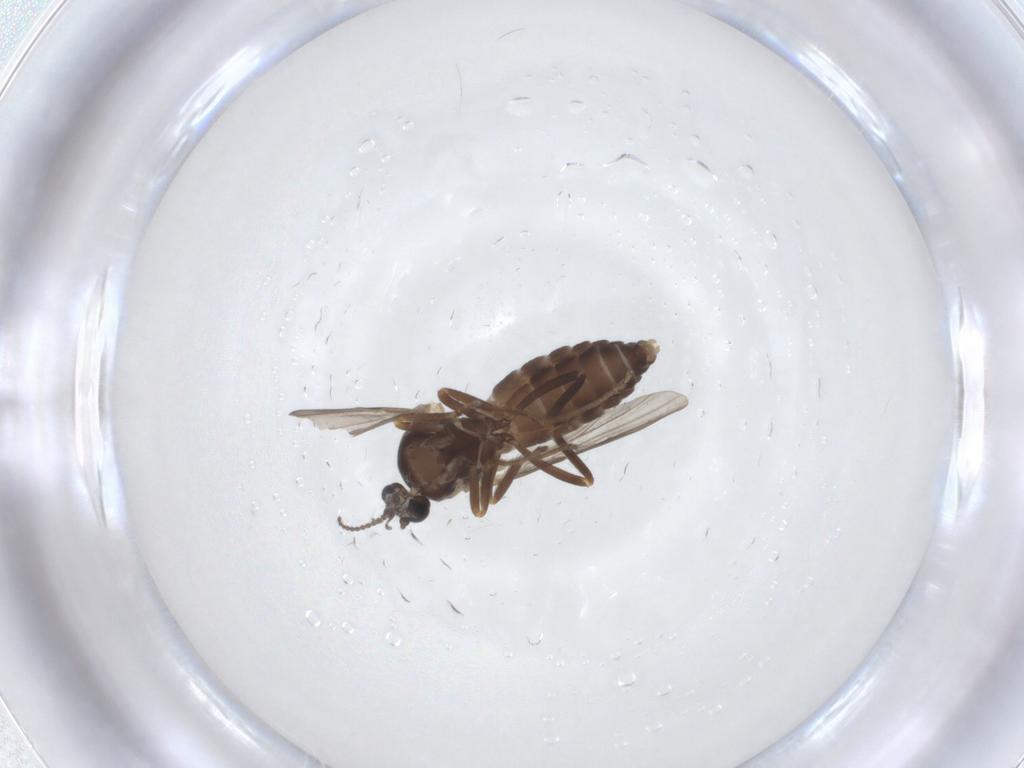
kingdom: Animalia
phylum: Arthropoda
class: Insecta
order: Diptera
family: Ceratopogonidae
